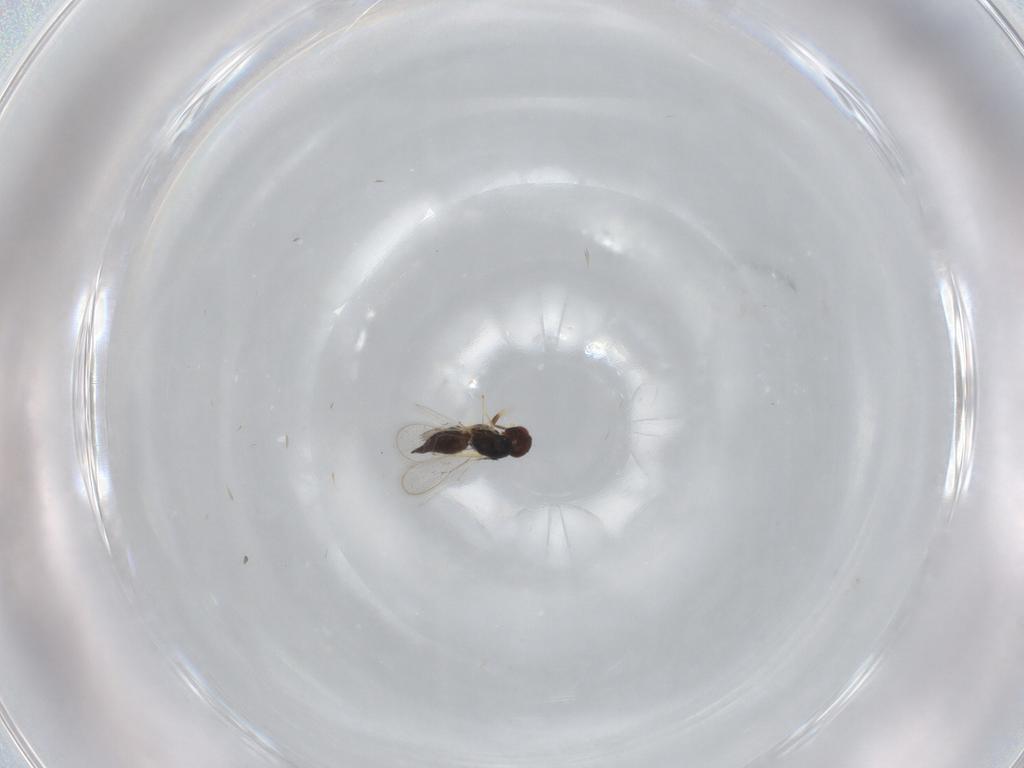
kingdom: Animalia
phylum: Arthropoda
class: Insecta
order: Hymenoptera
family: Eulophidae
